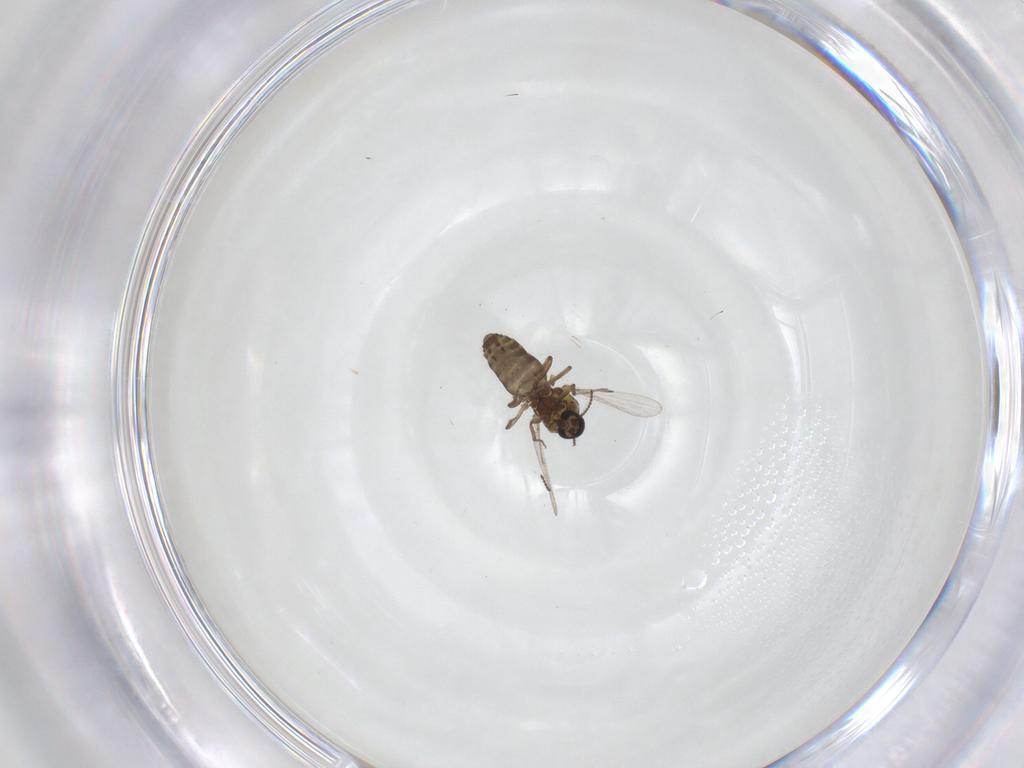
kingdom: Animalia
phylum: Arthropoda
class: Insecta
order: Diptera
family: Ceratopogonidae
